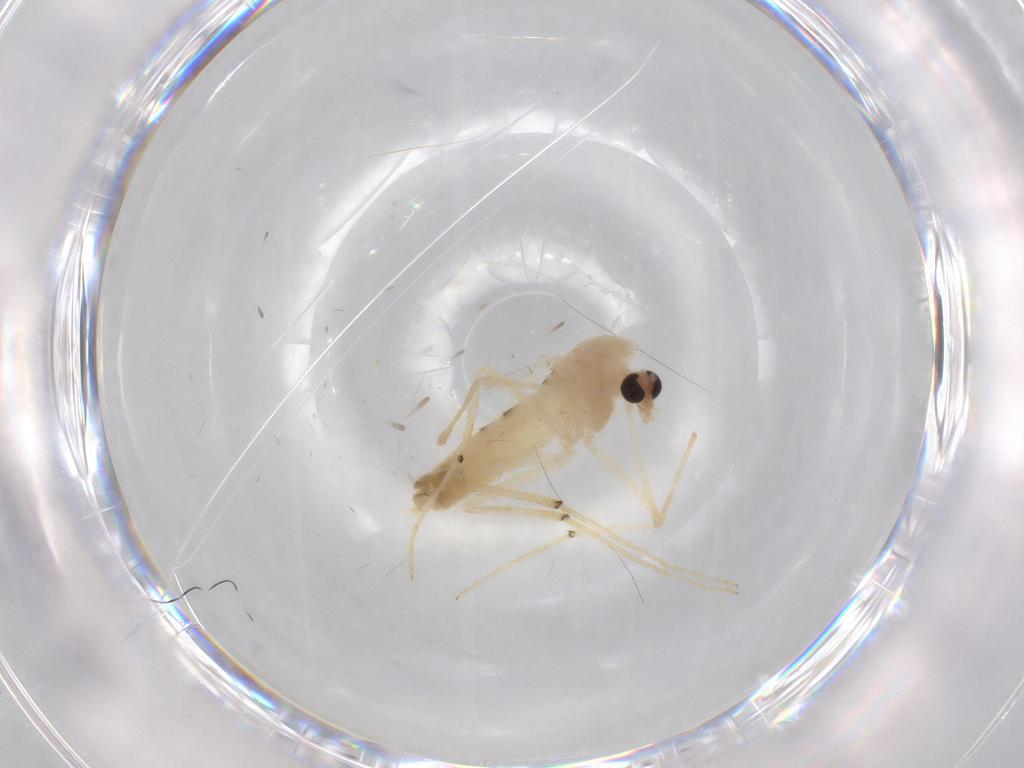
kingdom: Animalia
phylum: Arthropoda
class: Insecta
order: Diptera
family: Chironomidae
